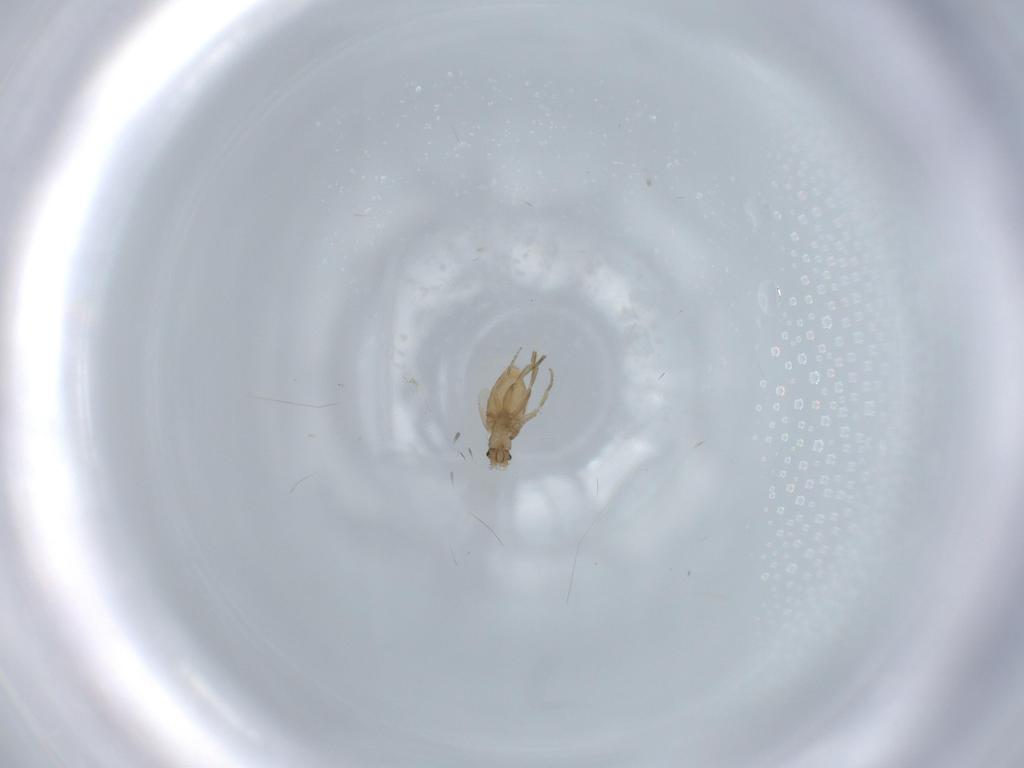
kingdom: Animalia
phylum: Arthropoda
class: Insecta
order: Diptera
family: Phoridae
